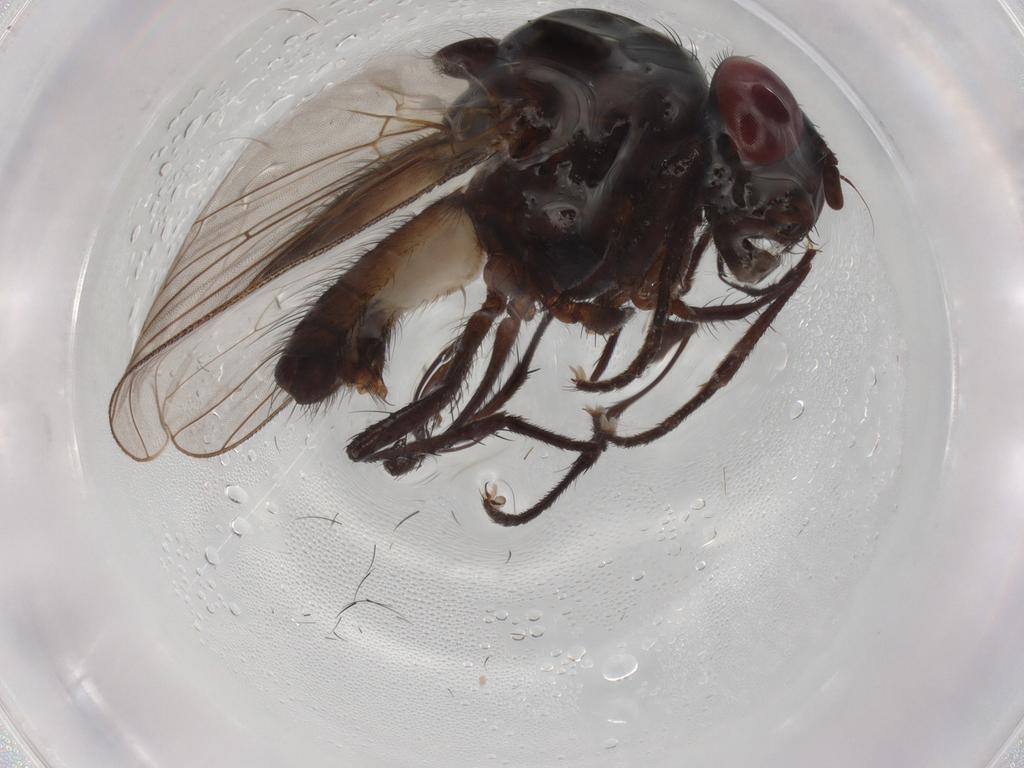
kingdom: Animalia
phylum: Arthropoda
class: Insecta
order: Diptera
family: Anthomyiidae
